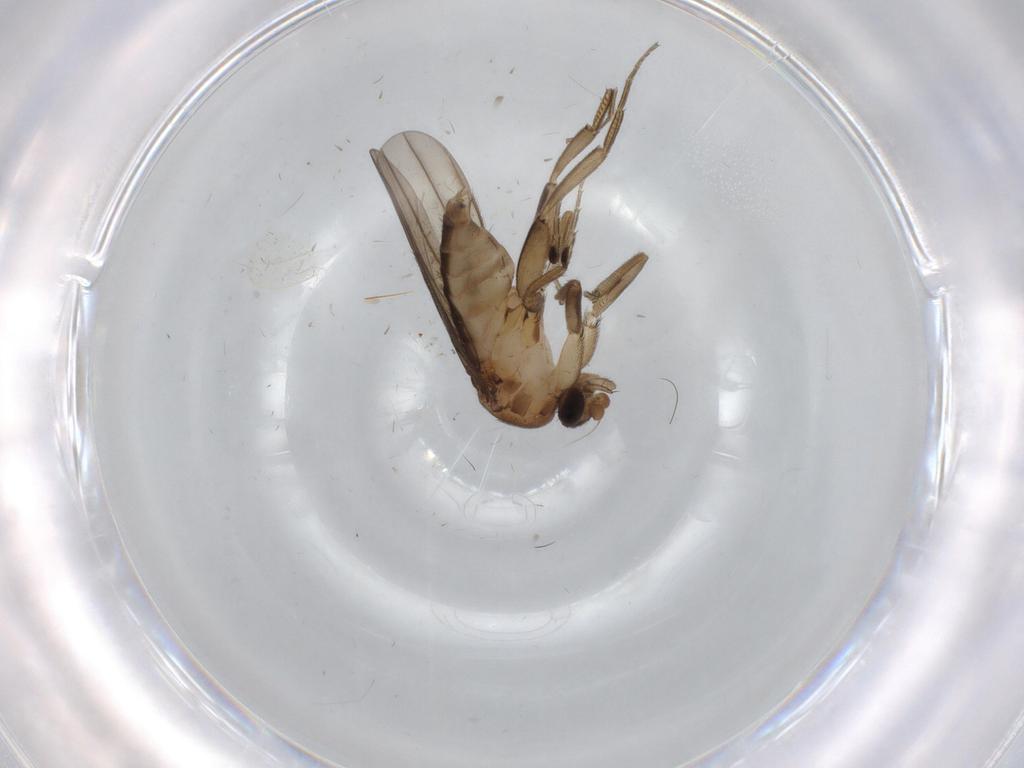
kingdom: Animalia
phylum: Arthropoda
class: Insecta
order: Diptera
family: Phoridae
